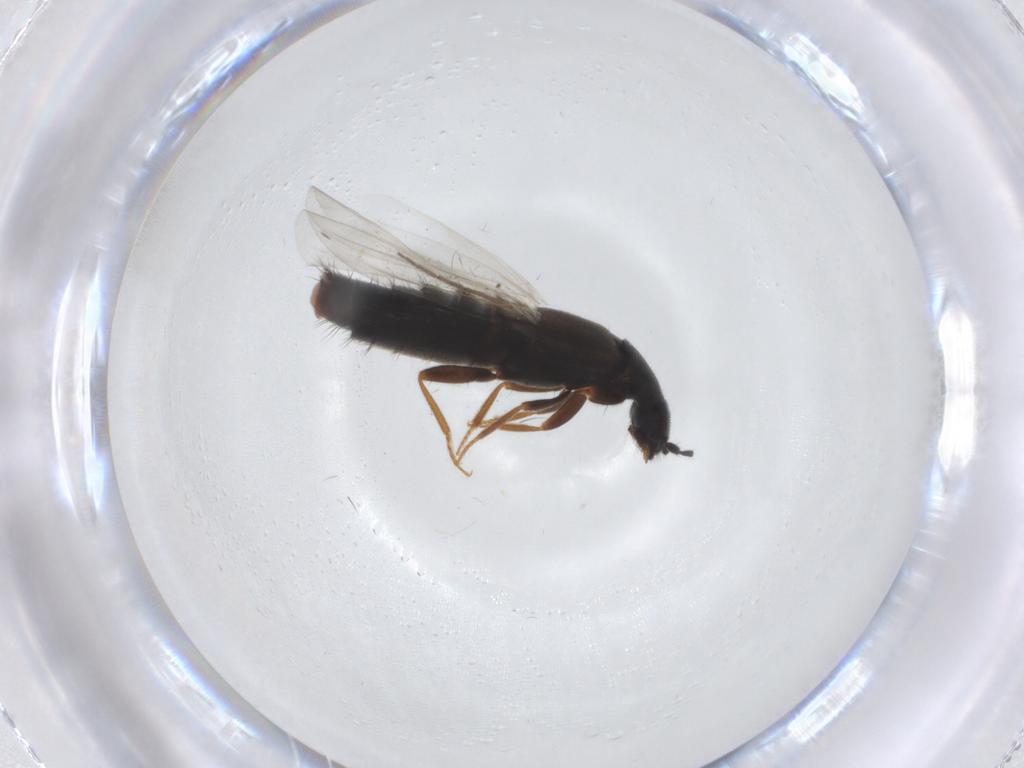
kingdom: Animalia
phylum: Arthropoda
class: Insecta
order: Coleoptera
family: Staphylinidae
